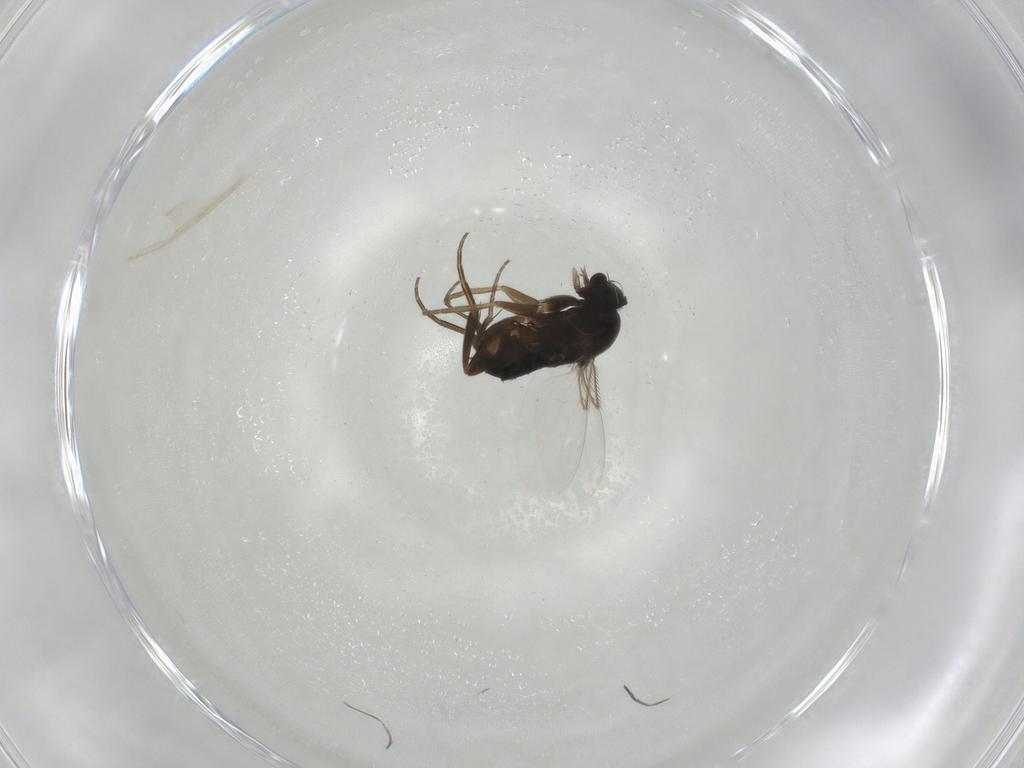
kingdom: Animalia
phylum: Arthropoda
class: Insecta
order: Diptera
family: Phoridae
